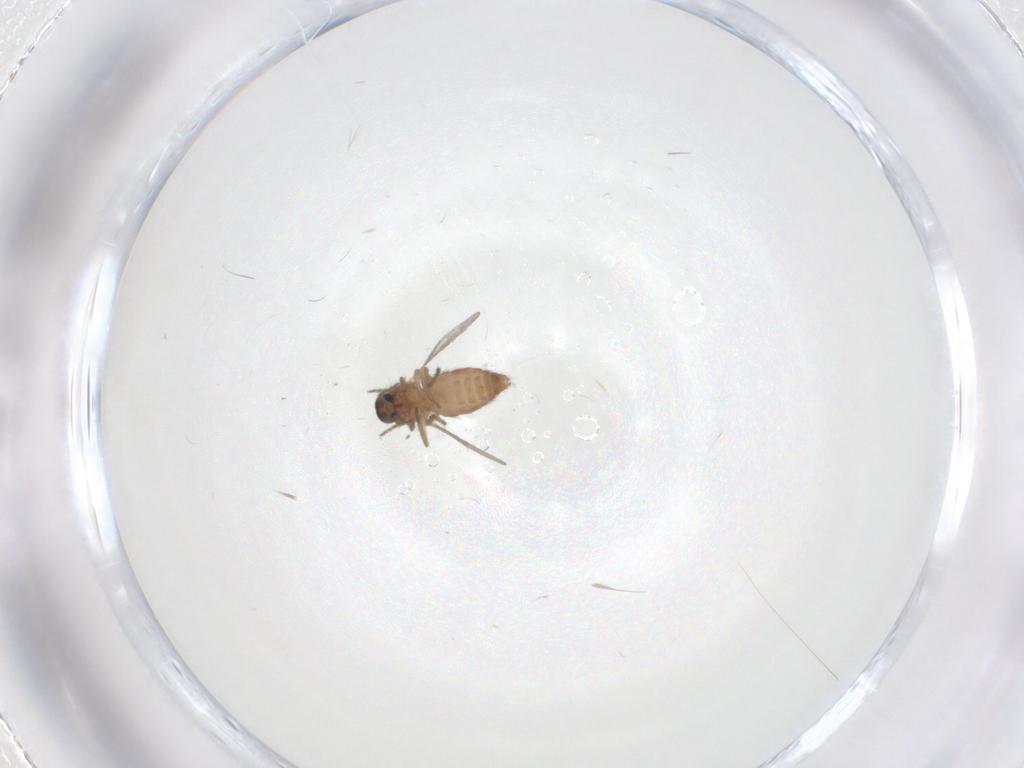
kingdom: Animalia
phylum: Arthropoda
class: Insecta
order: Diptera
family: Ceratopogonidae
